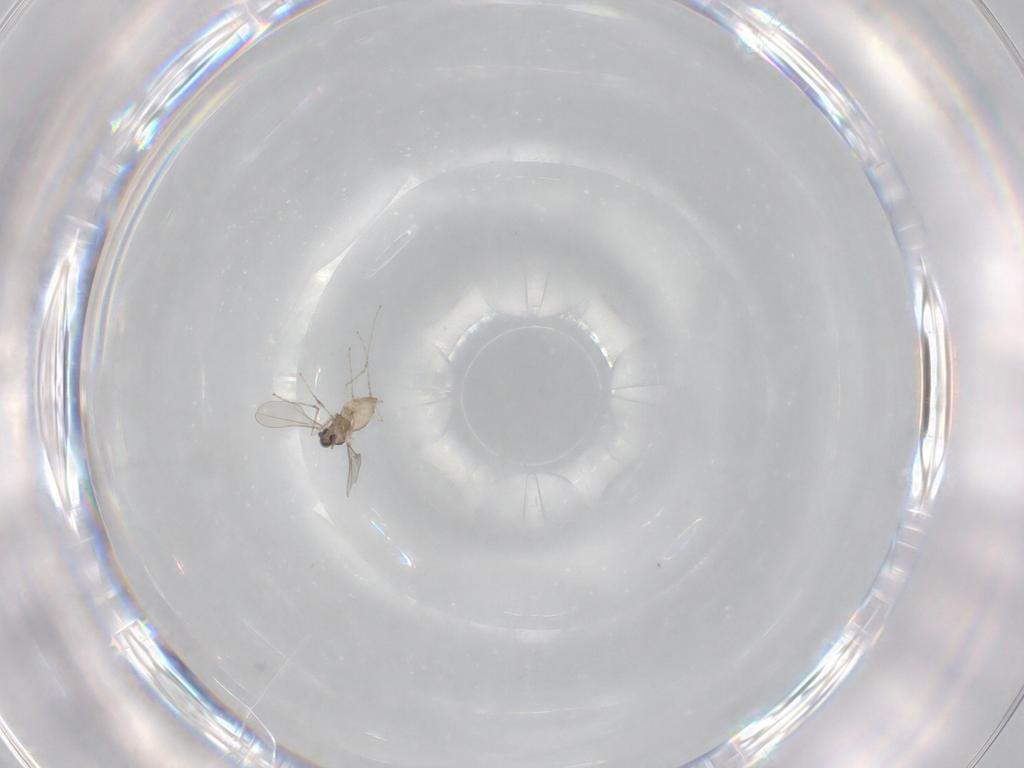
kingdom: Animalia
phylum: Arthropoda
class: Insecta
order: Diptera
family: Cecidomyiidae
